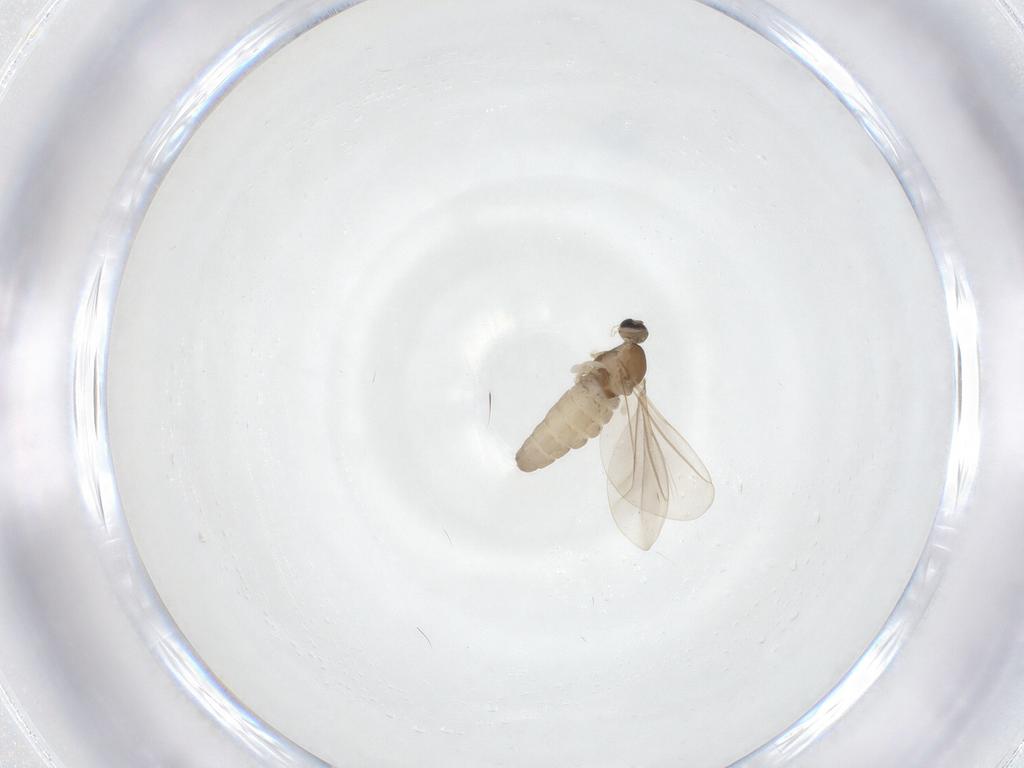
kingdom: Animalia
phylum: Arthropoda
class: Insecta
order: Diptera
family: Cecidomyiidae
